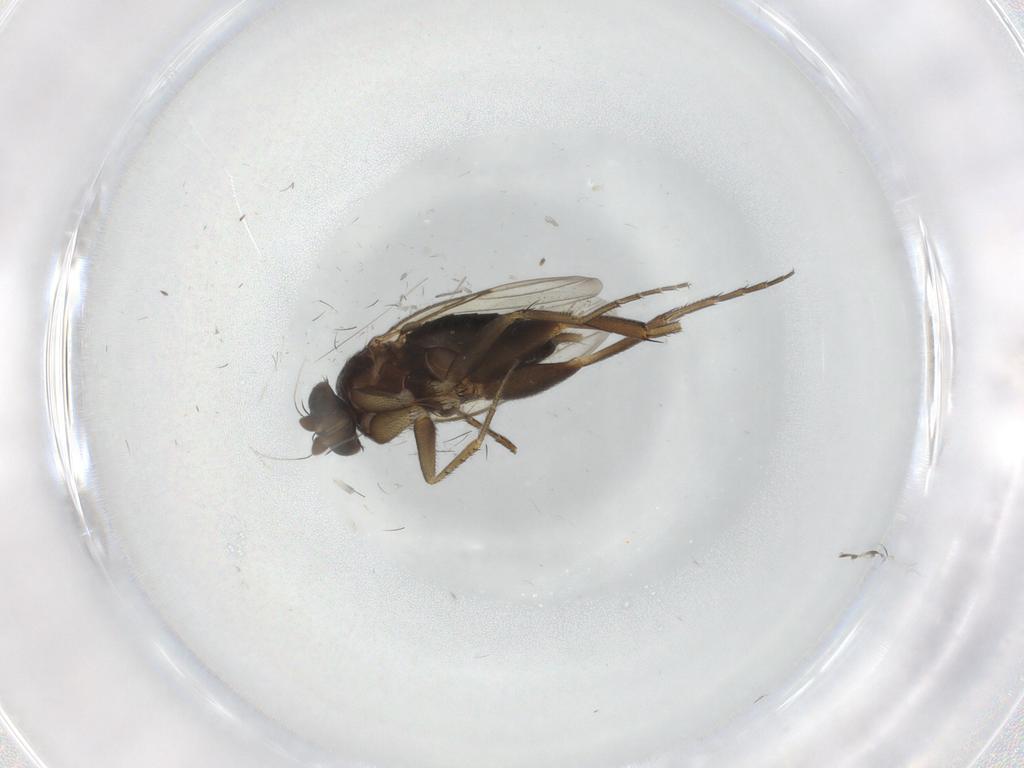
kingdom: Animalia
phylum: Arthropoda
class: Insecta
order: Diptera
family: Phoridae
